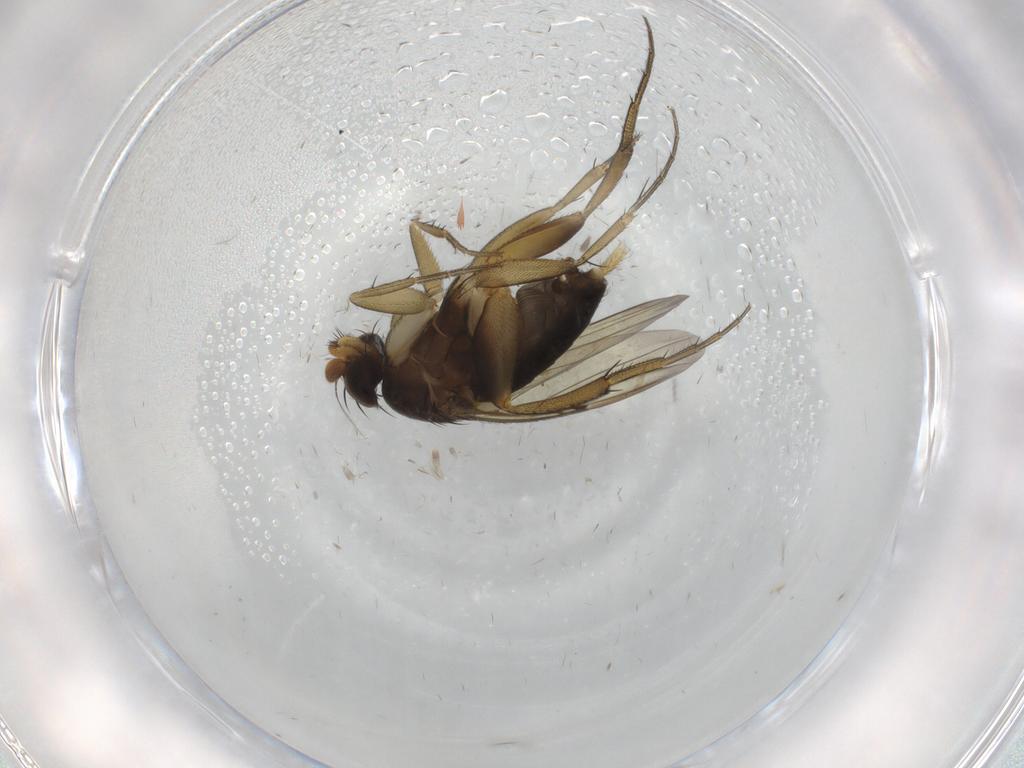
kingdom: Animalia
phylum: Arthropoda
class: Insecta
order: Diptera
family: Phoridae
